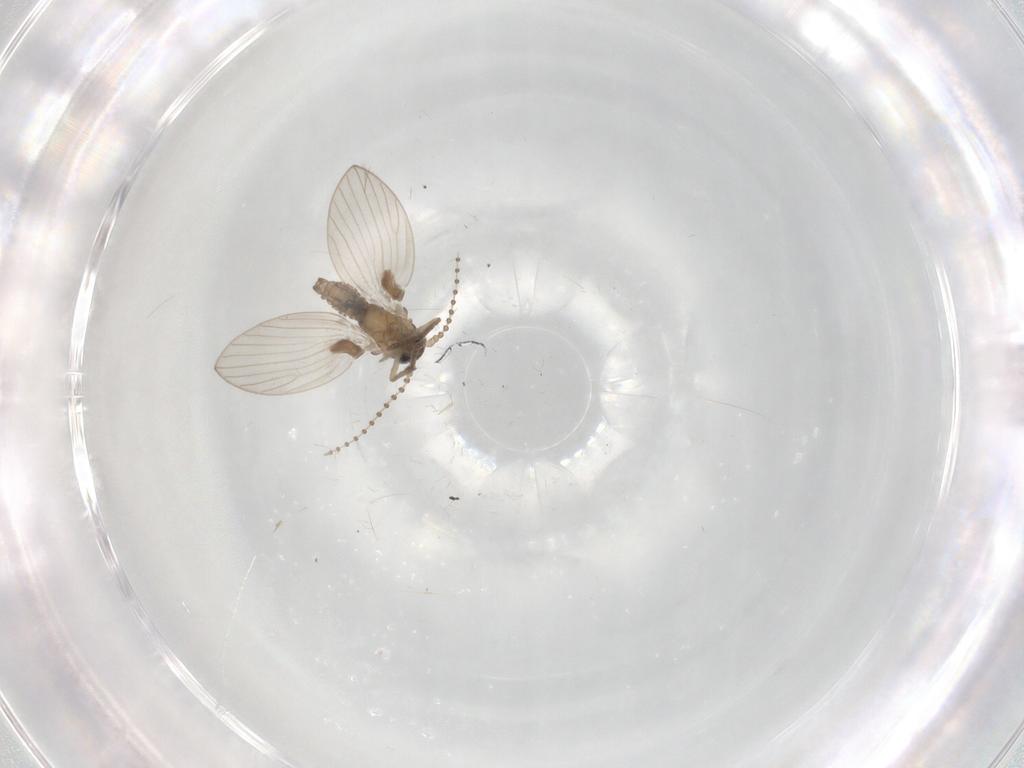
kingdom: Animalia
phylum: Arthropoda
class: Insecta
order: Diptera
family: Psychodidae
